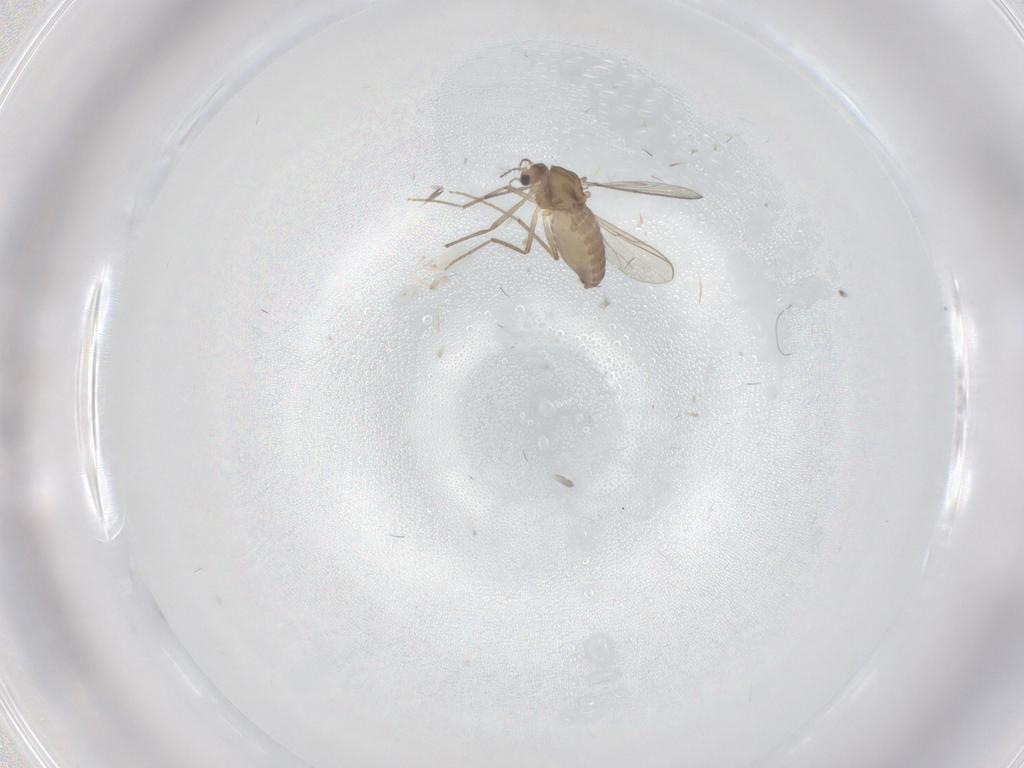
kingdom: Animalia
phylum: Arthropoda
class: Insecta
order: Diptera
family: Chironomidae
